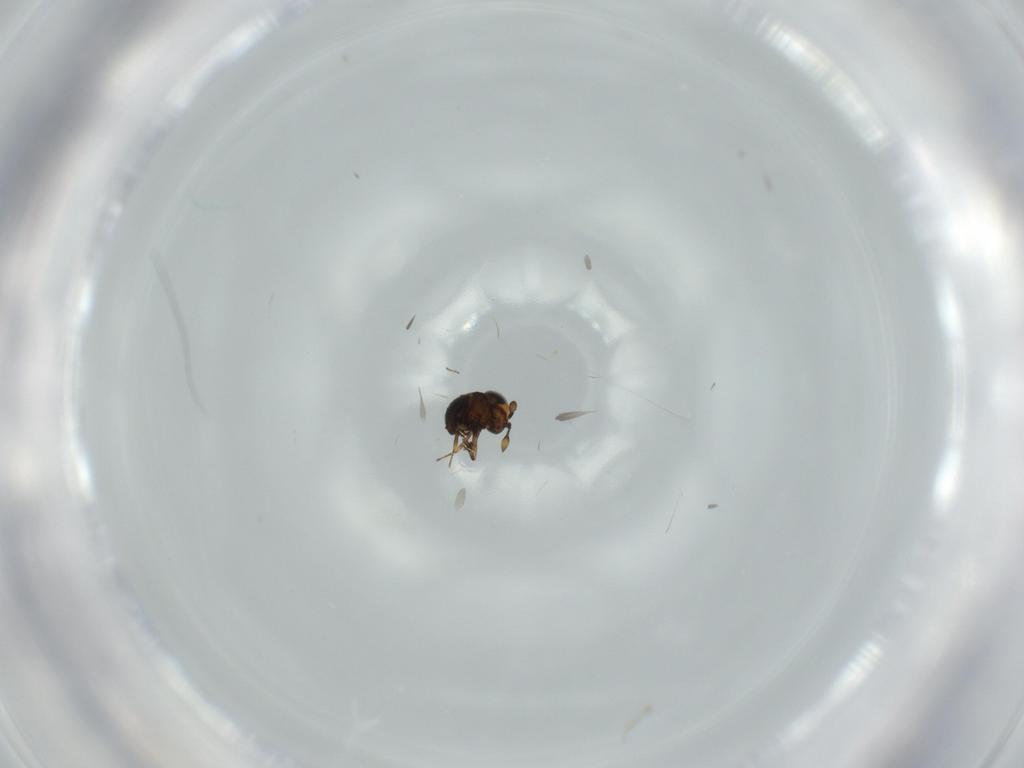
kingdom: Animalia
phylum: Arthropoda
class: Insecta
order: Hymenoptera
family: Scelionidae
